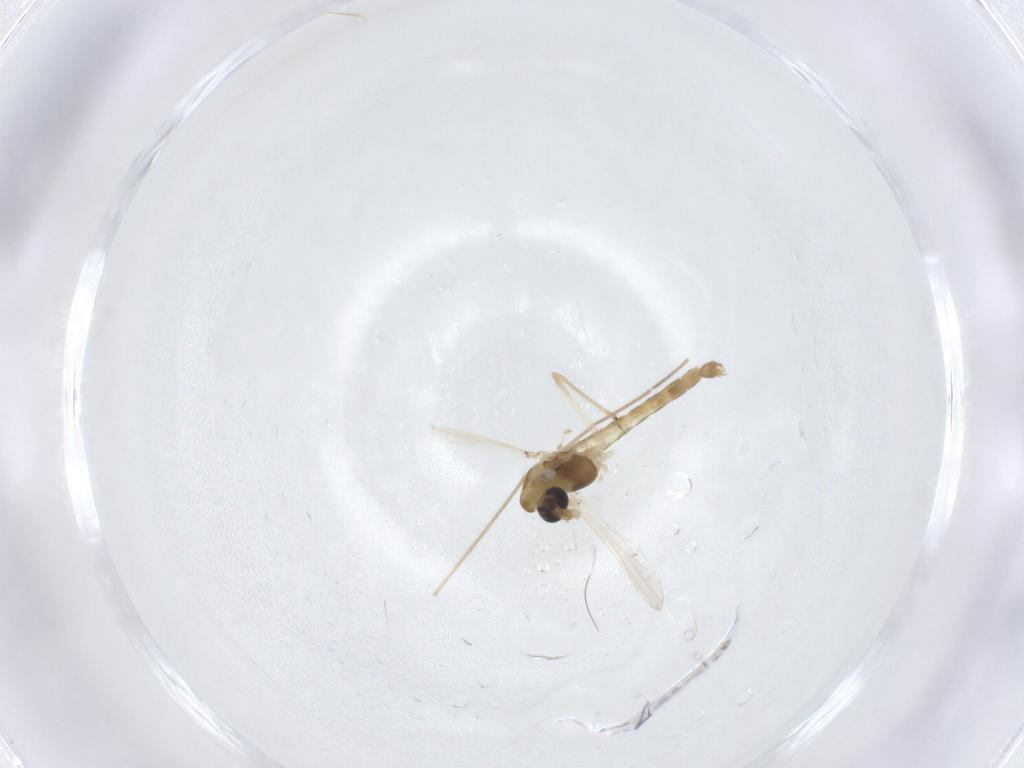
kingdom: Animalia
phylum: Arthropoda
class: Insecta
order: Diptera
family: Chironomidae
